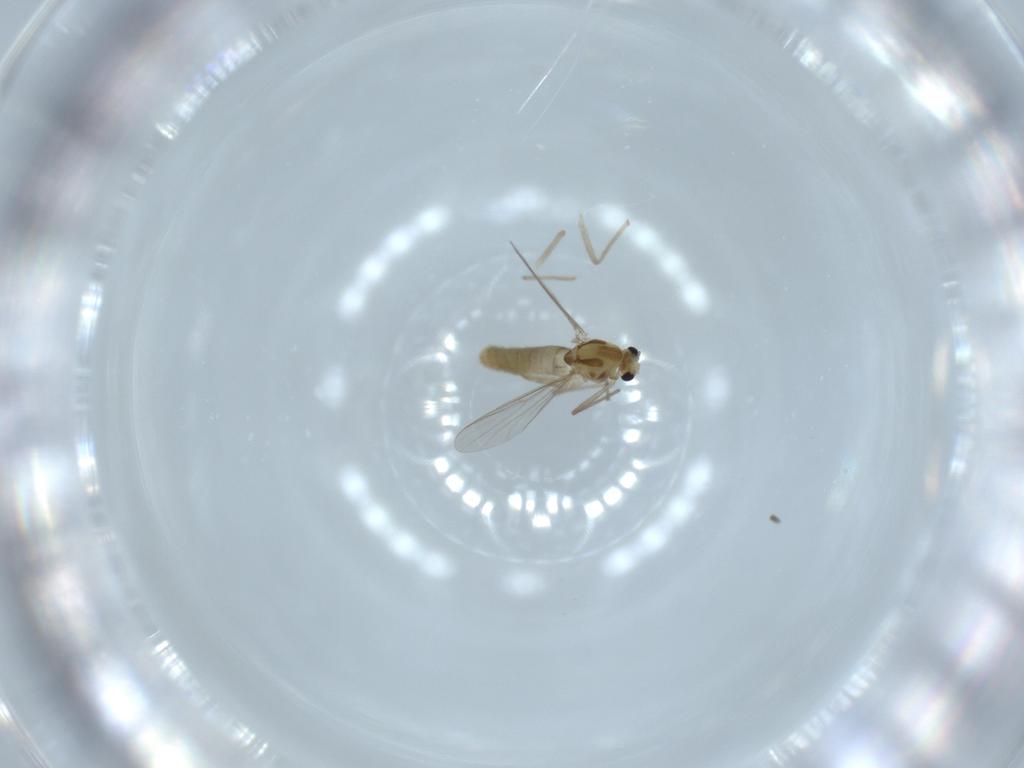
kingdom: Animalia
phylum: Arthropoda
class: Insecta
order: Diptera
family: Chironomidae
